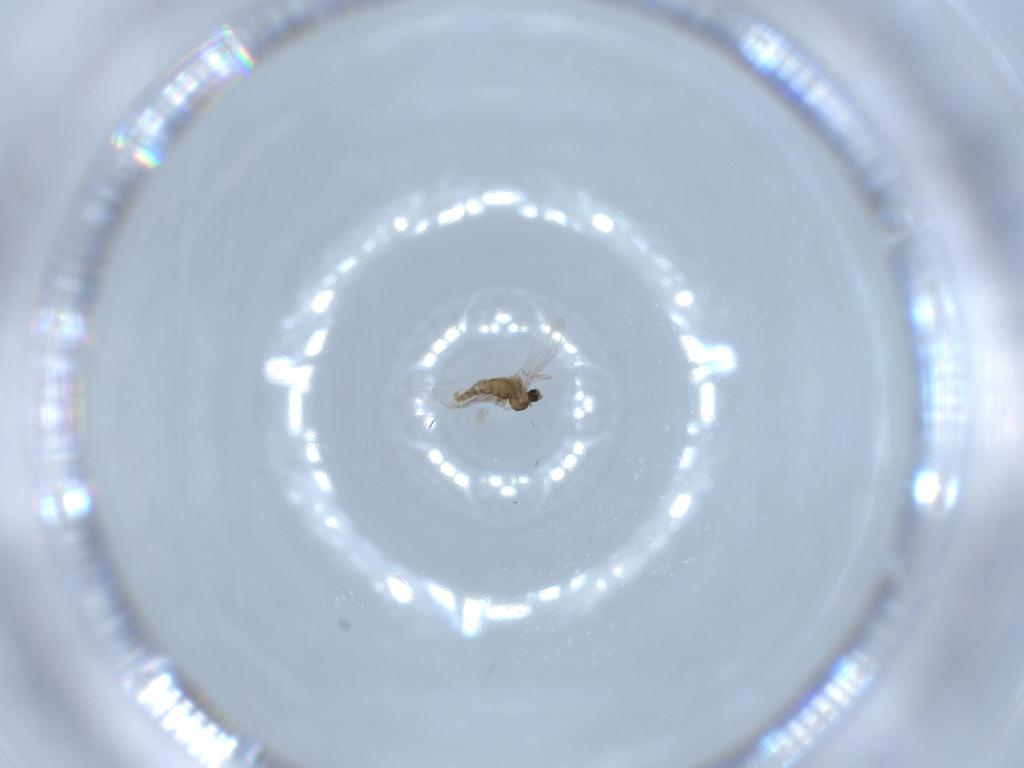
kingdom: Animalia
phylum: Arthropoda
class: Insecta
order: Diptera
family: Cecidomyiidae
